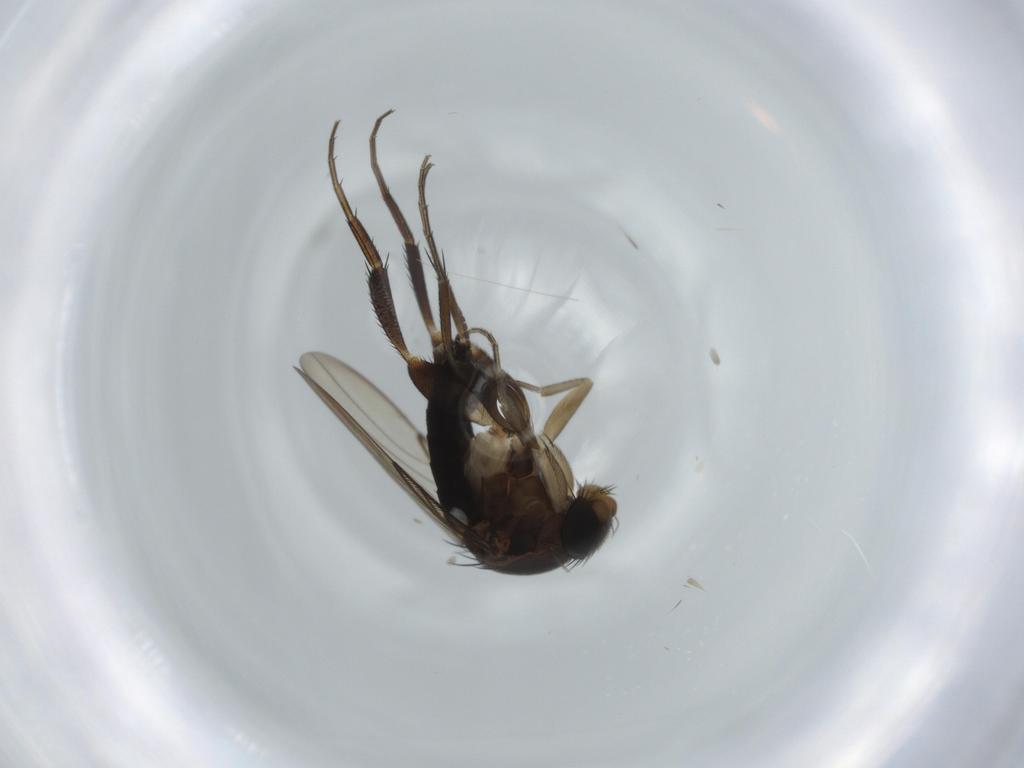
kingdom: Animalia
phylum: Arthropoda
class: Insecta
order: Diptera
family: Phoridae
